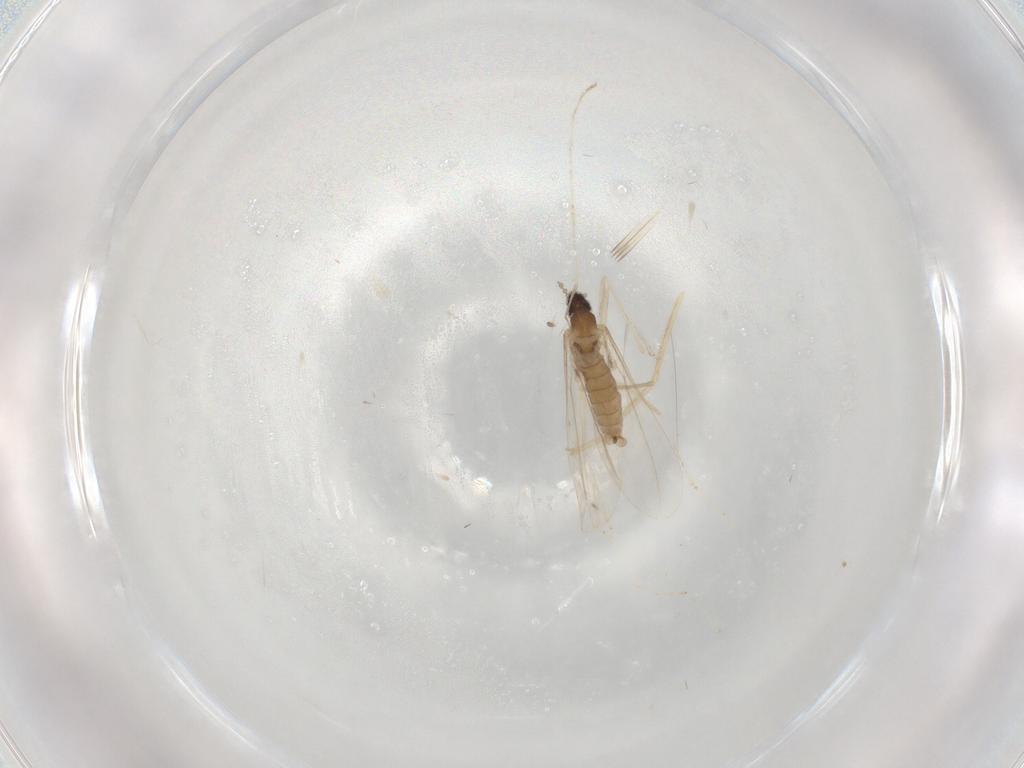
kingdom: Animalia
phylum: Arthropoda
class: Insecta
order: Diptera
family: Cecidomyiidae
